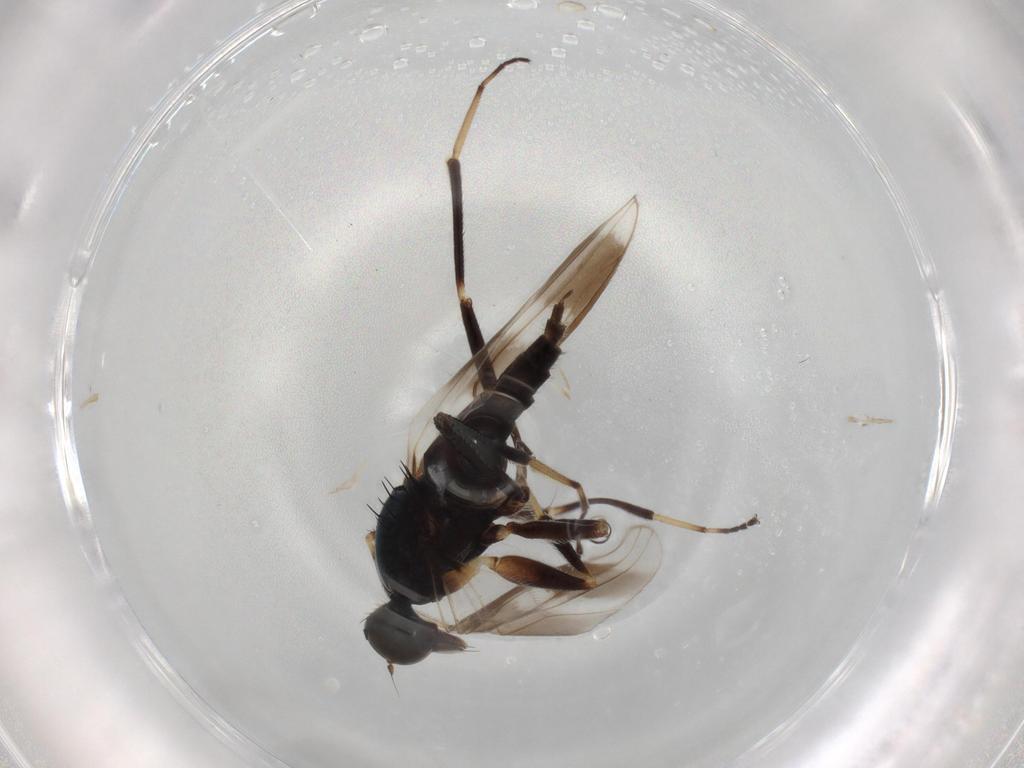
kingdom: Animalia
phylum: Arthropoda
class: Insecta
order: Diptera
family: Hybotidae
